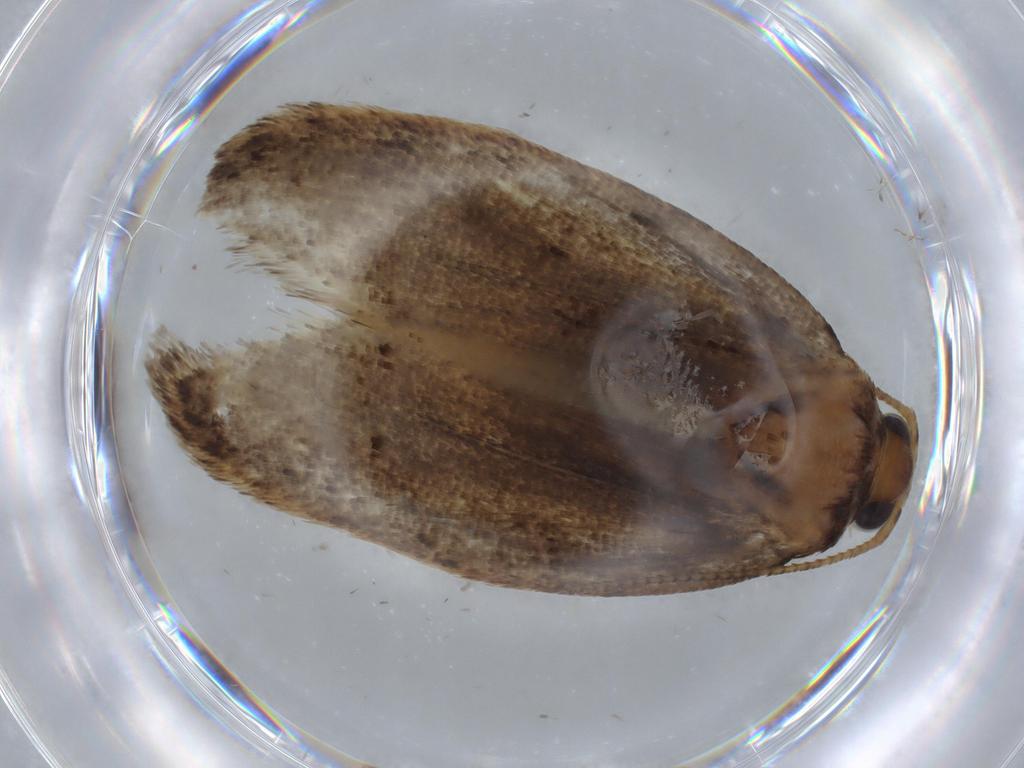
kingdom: Animalia
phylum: Arthropoda
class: Insecta
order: Lepidoptera
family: Oecophoridae
